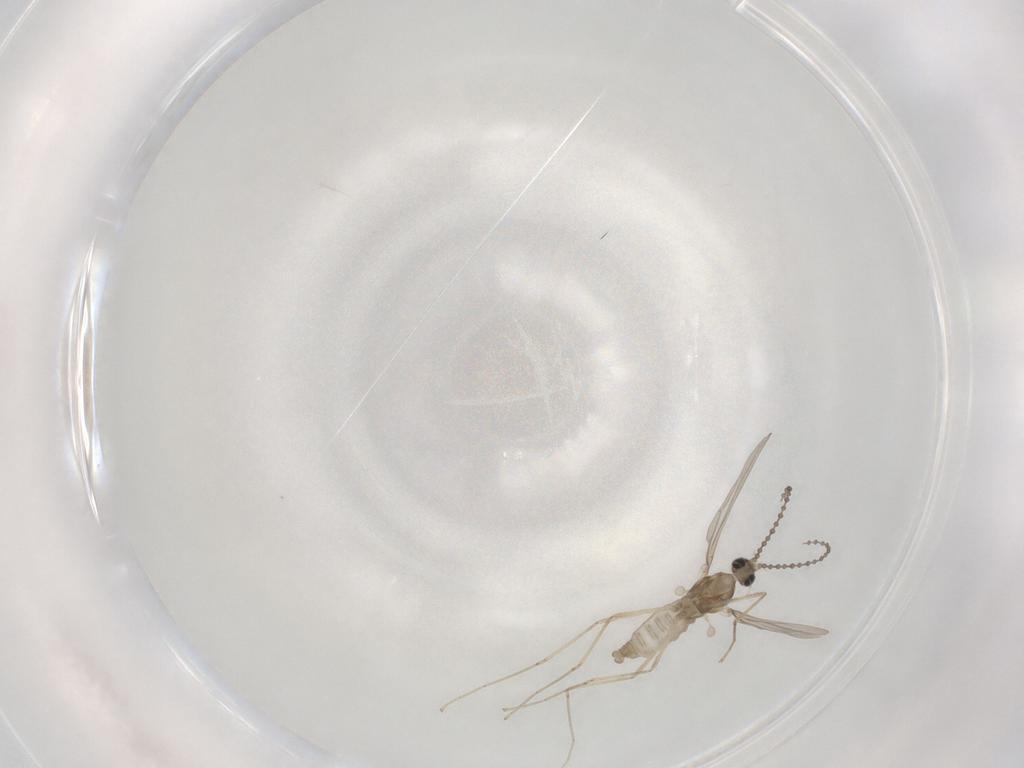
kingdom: Animalia
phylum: Arthropoda
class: Insecta
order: Diptera
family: Cecidomyiidae
